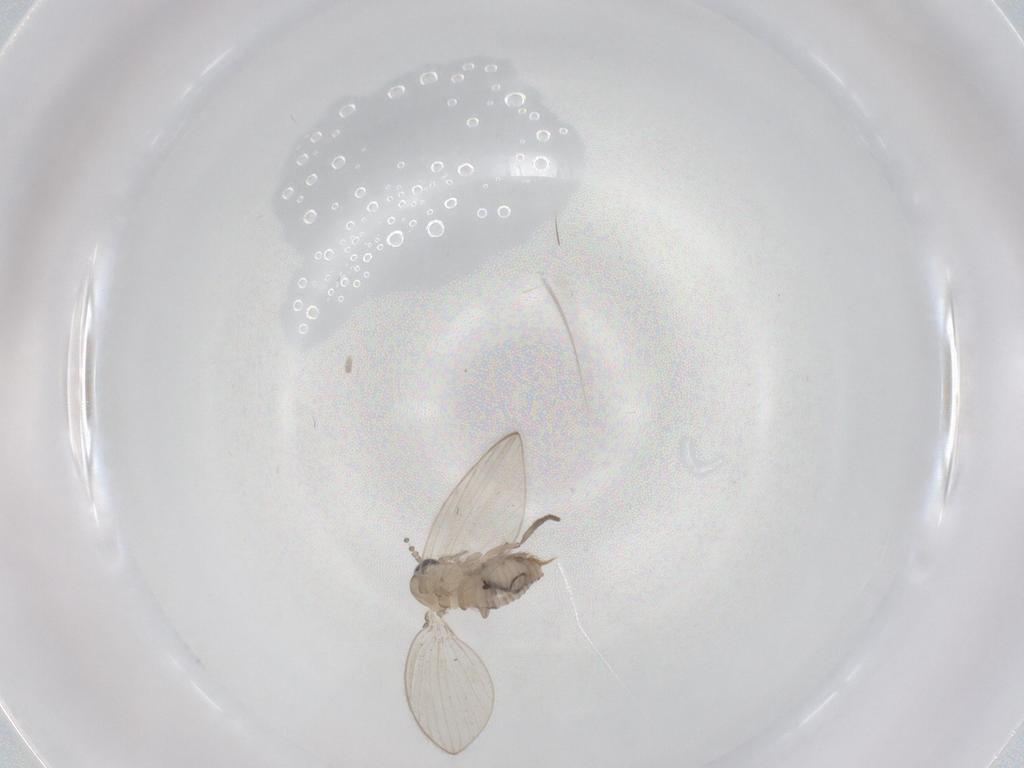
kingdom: Animalia
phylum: Arthropoda
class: Insecta
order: Diptera
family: Psychodidae
